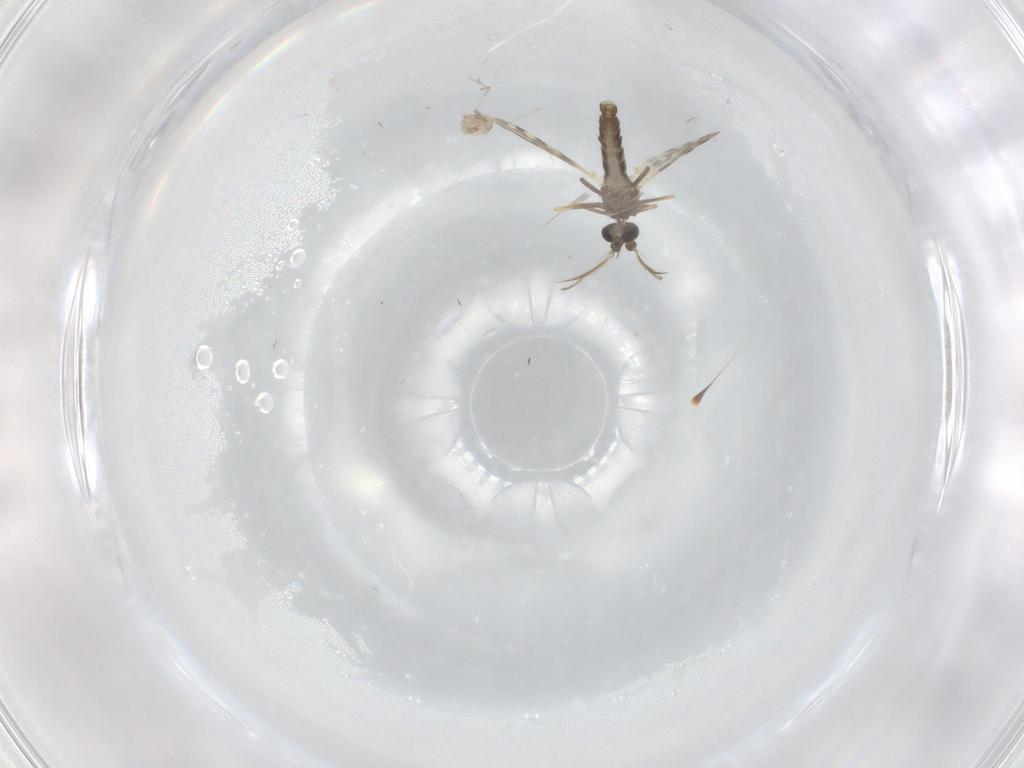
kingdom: Animalia
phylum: Arthropoda
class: Insecta
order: Diptera
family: Ceratopogonidae
